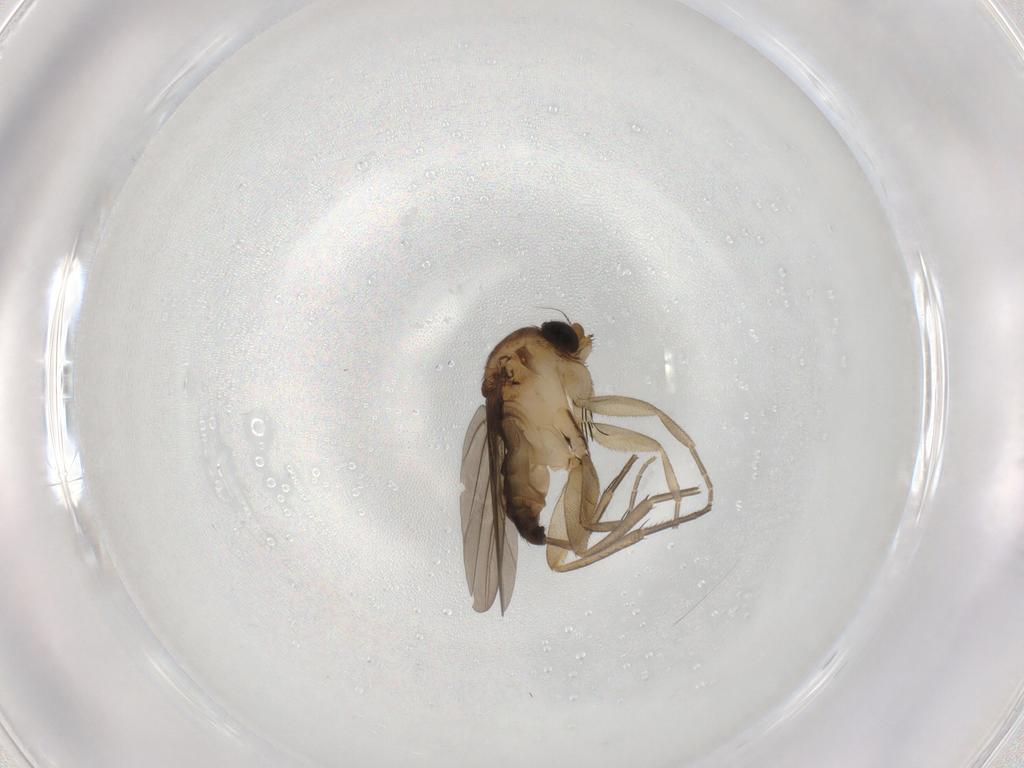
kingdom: Animalia
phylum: Arthropoda
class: Insecta
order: Diptera
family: Phoridae
